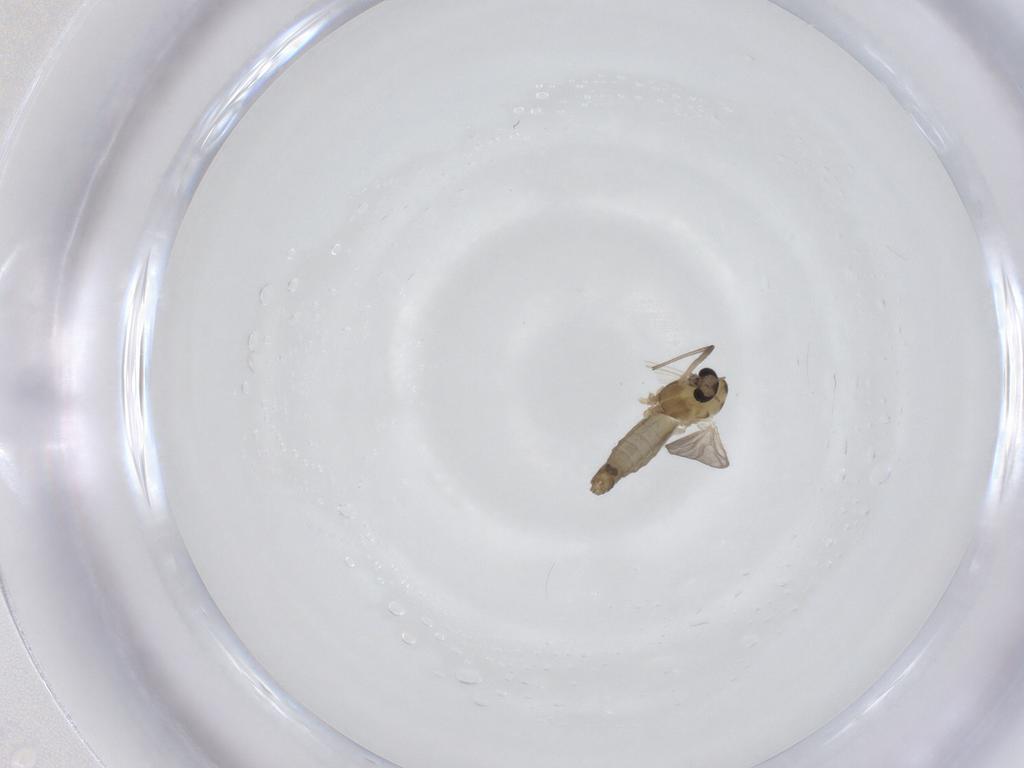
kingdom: Animalia
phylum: Arthropoda
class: Insecta
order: Diptera
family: Chironomidae
